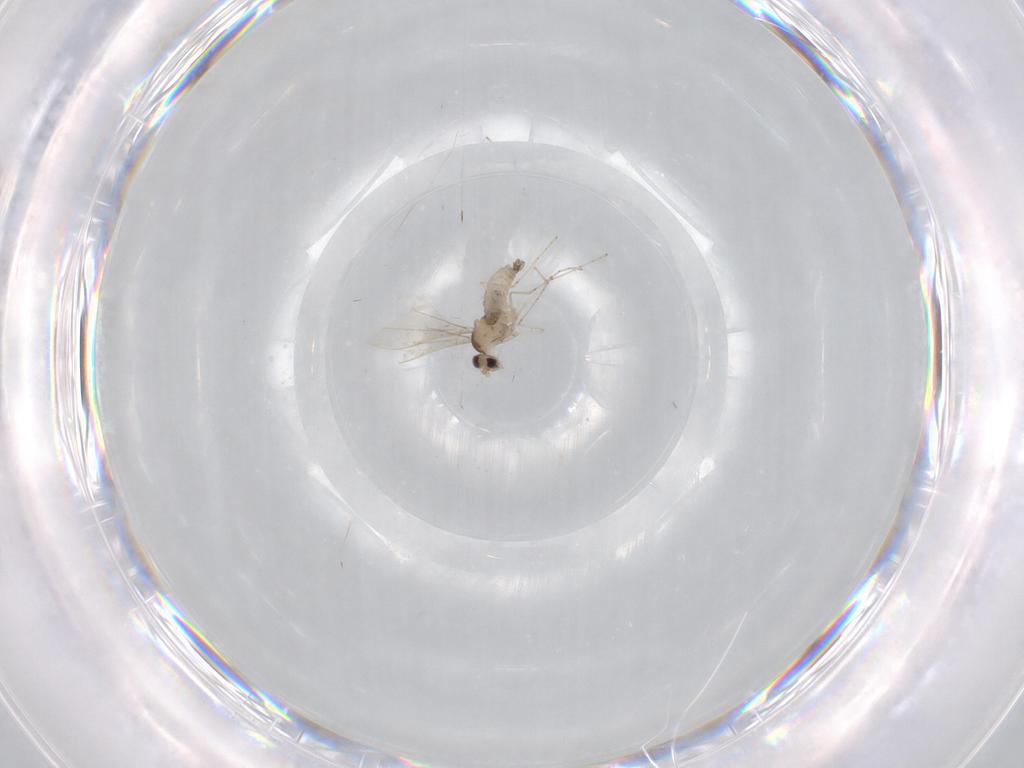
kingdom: Animalia
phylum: Arthropoda
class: Insecta
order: Diptera
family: Cecidomyiidae
